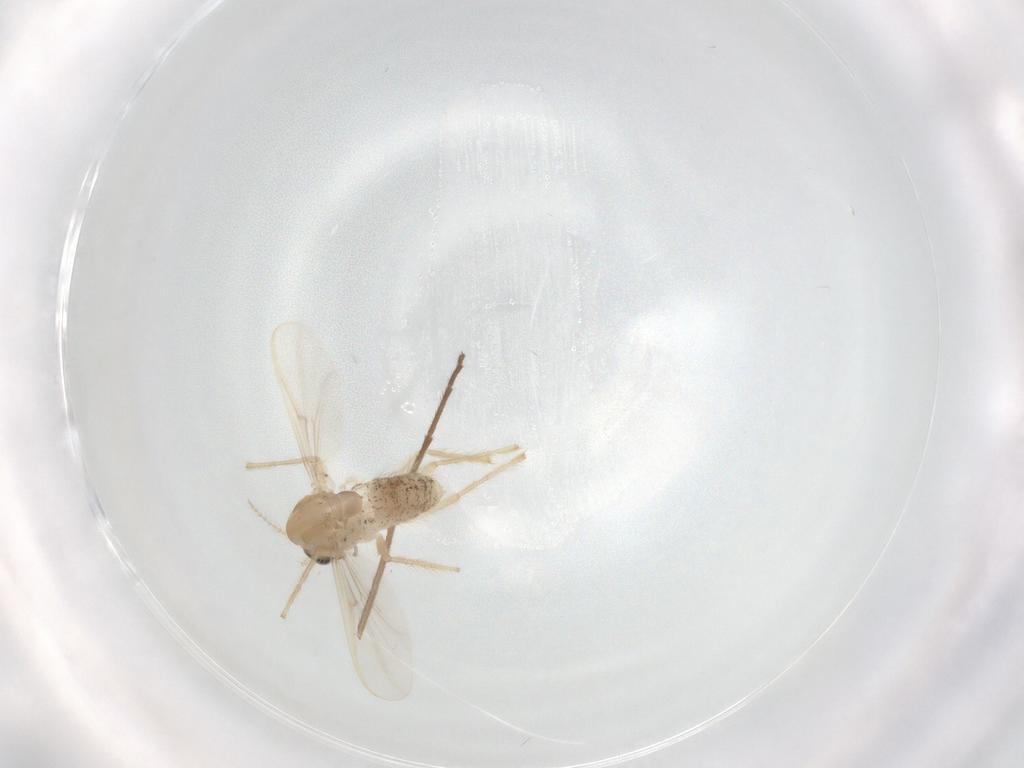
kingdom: Animalia
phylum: Arthropoda
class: Insecta
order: Diptera
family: Chironomidae
